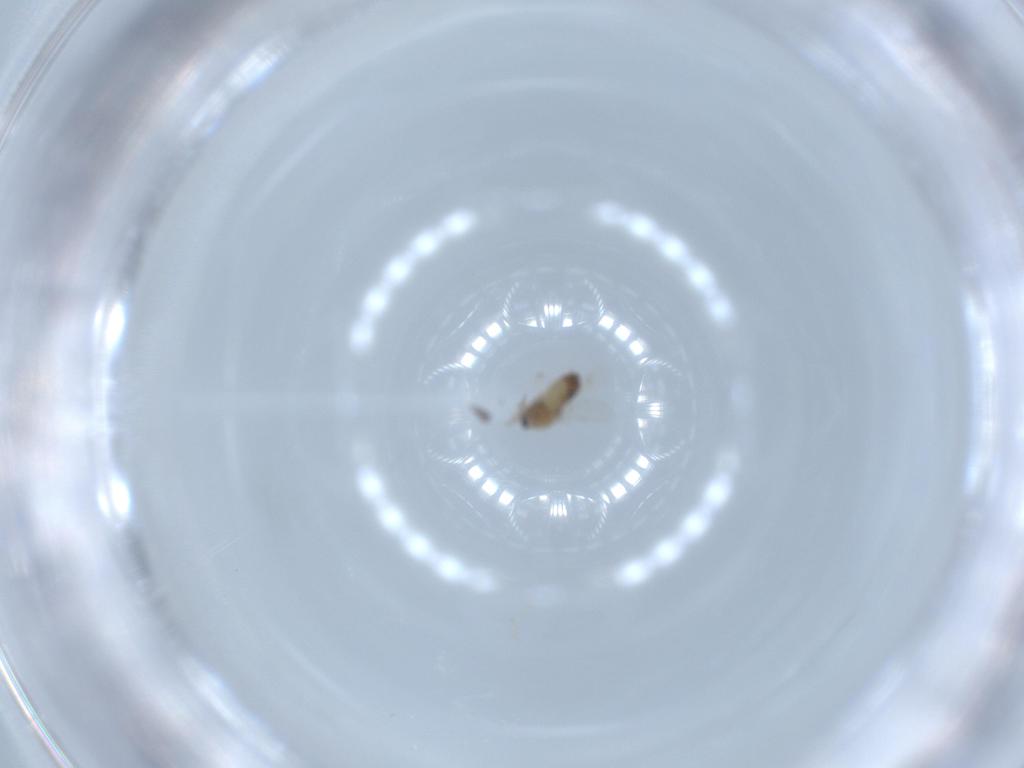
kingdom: Animalia
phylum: Arthropoda
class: Insecta
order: Diptera
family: Chironomidae
